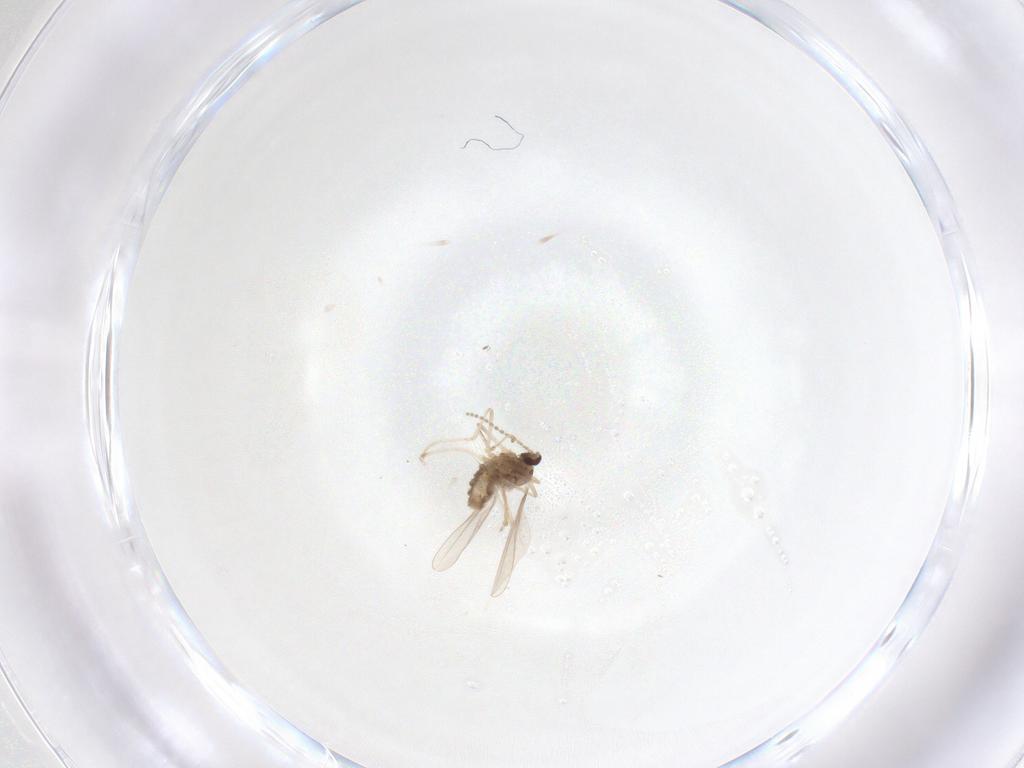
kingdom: Animalia
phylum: Arthropoda
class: Insecta
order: Diptera
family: Cecidomyiidae
